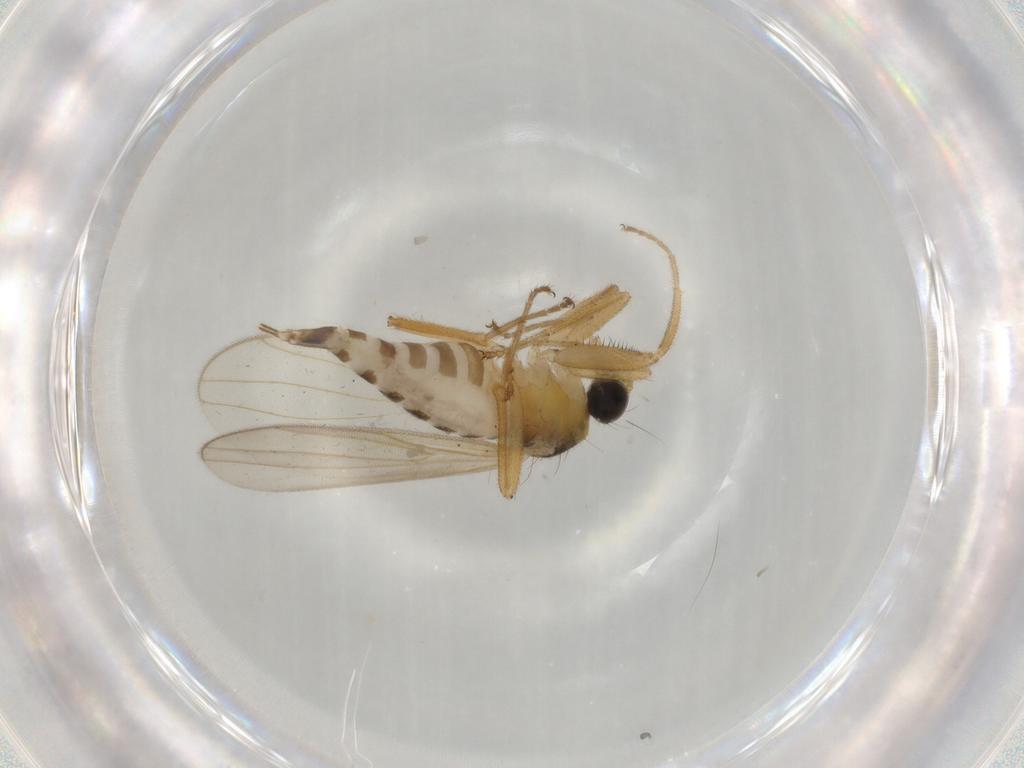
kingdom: Animalia
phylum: Arthropoda
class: Insecta
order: Diptera
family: Hybotidae
